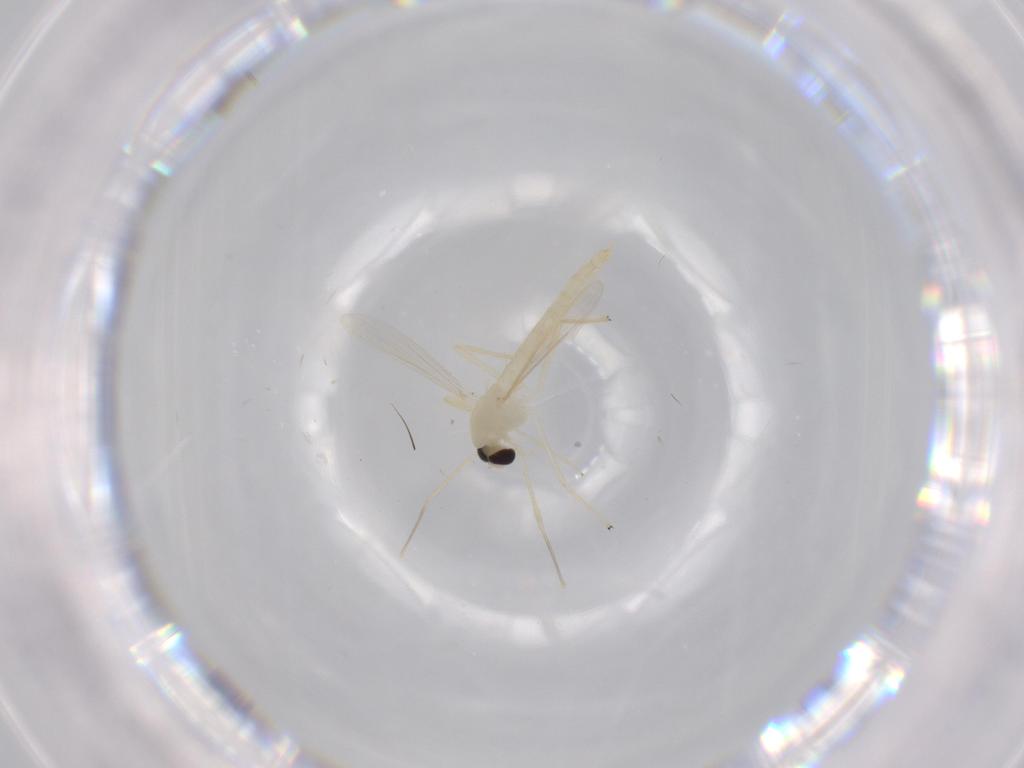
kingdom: Animalia
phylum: Arthropoda
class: Insecta
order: Diptera
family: Chironomidae
